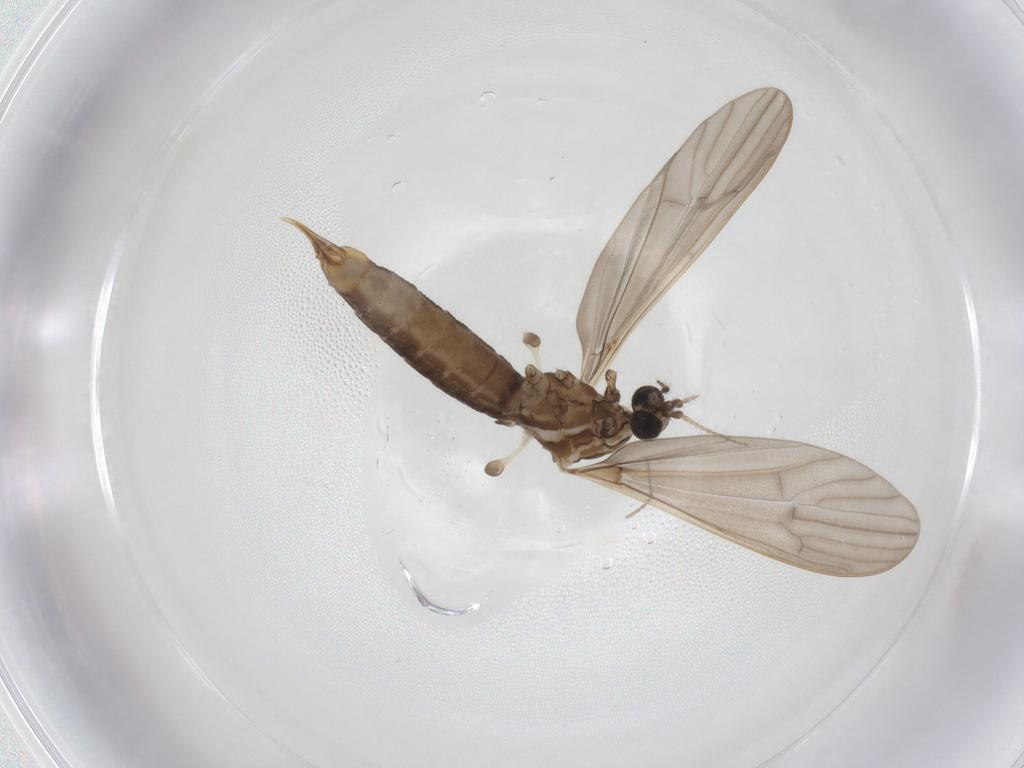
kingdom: Animalia
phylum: Arthropoda
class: Insecta
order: Diptera
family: Limoniidae
